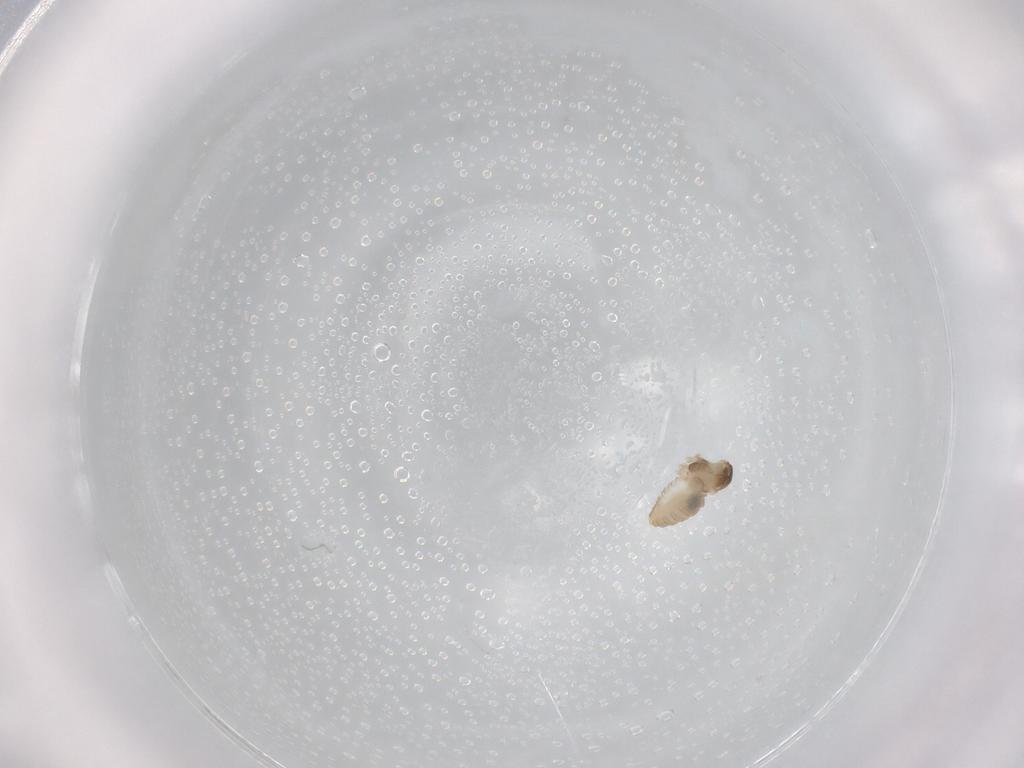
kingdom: Animalia
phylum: Arthropoda
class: Insecta
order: Diptera
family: Cecidomyiidae
